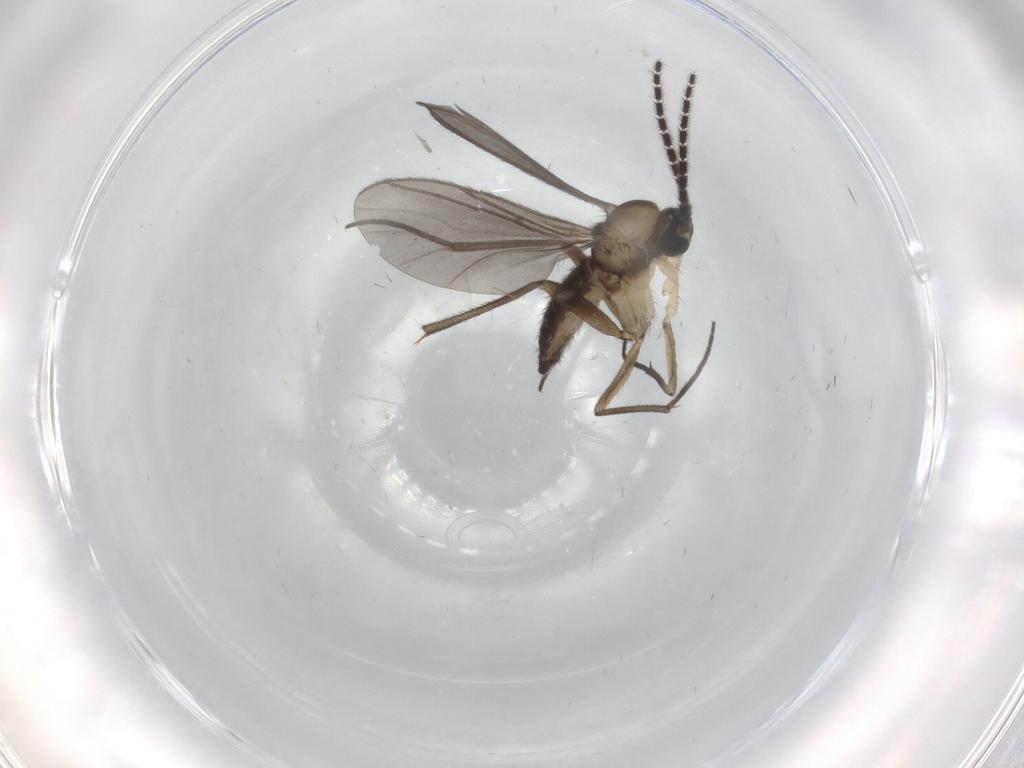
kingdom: Animalia
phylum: Arthropoda
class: Insecta
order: Diptera
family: Sciaridae
